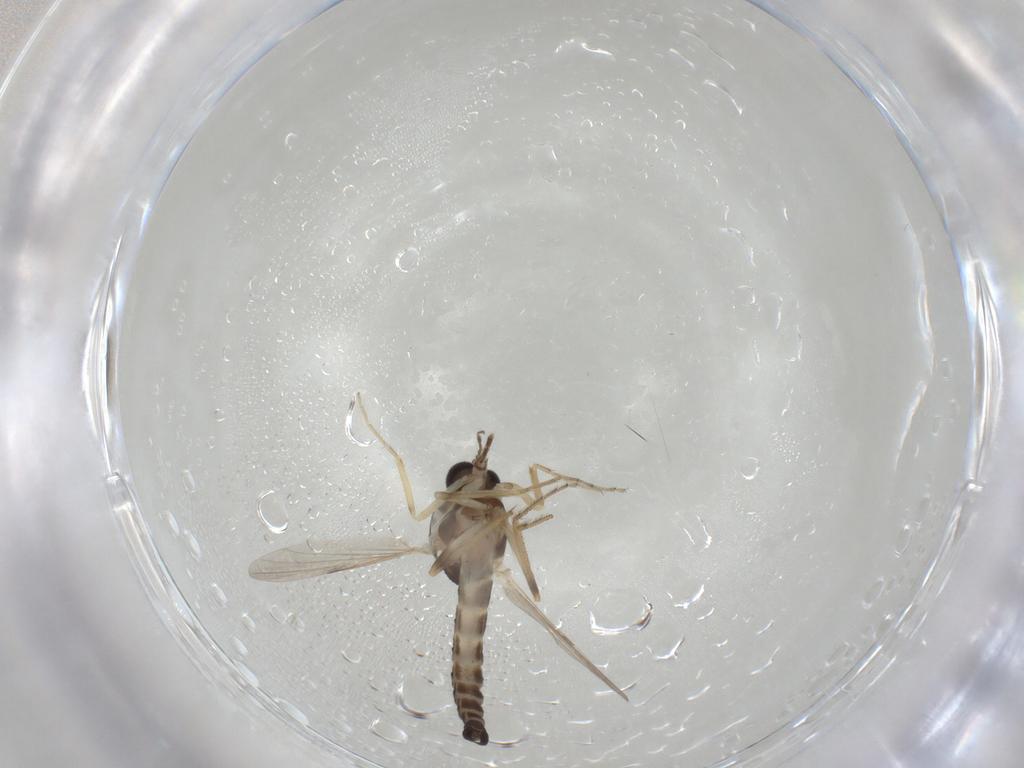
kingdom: Animalia
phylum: Arthropoda
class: Insecta
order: Diptera
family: Ceratopogonidae
